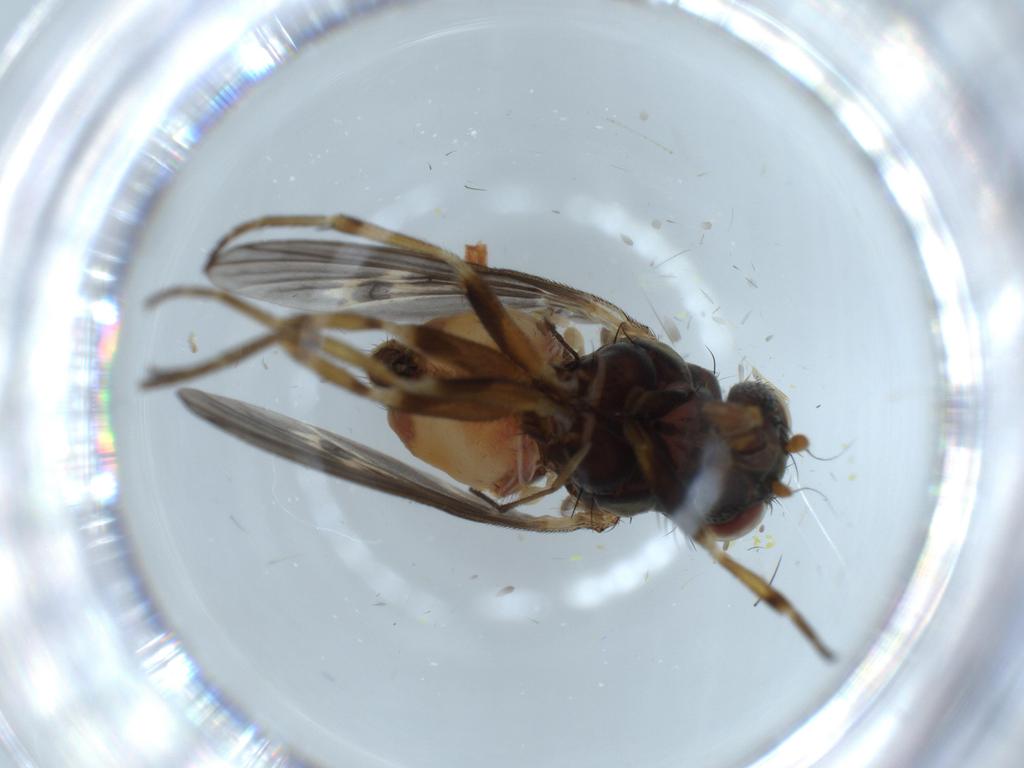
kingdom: Animalia
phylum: Arthropoda
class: Insecta
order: Diptera
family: Odiniidae
